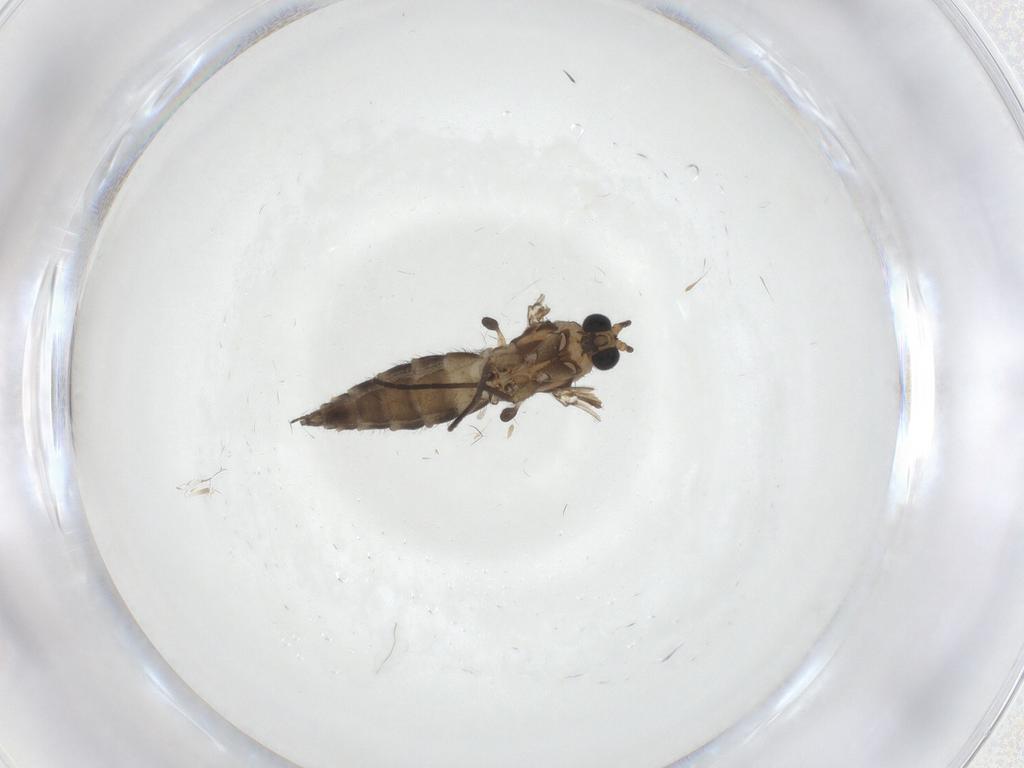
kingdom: Animalia
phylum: Arthropoda
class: Insecta
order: Diptera
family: Sciaridae
